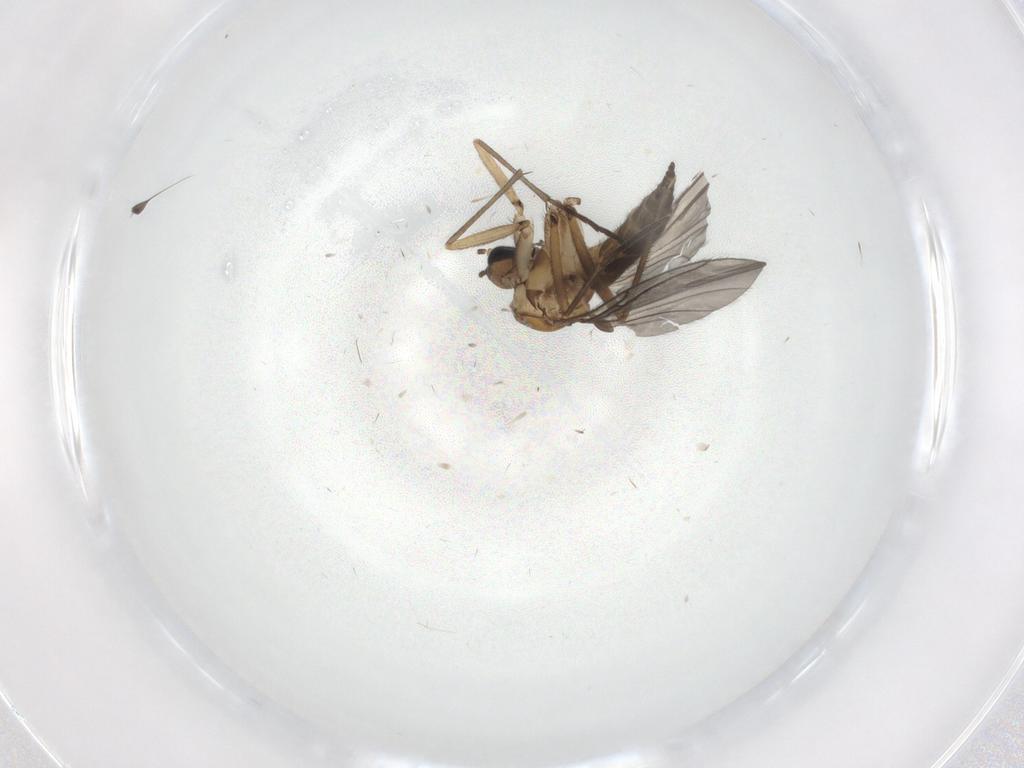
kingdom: Animalia
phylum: Arthropoda
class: Insecta
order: Diptera
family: Sciaridae
